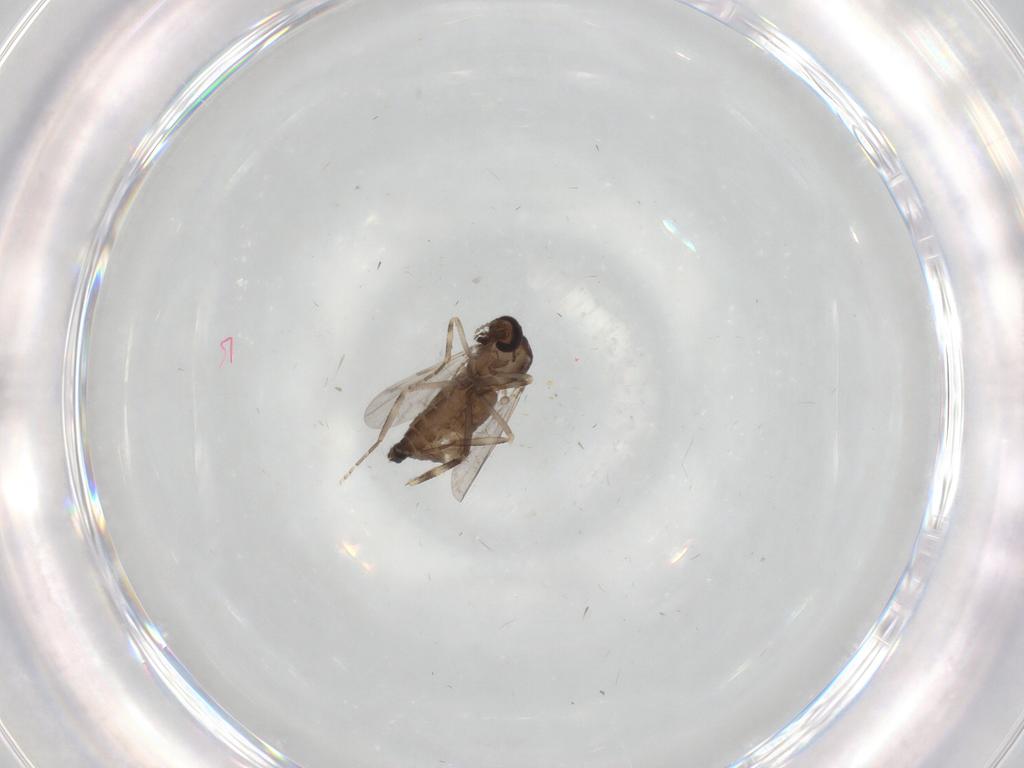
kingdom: Animalia
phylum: Arthropoda
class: Insecta
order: Diptera
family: Ceratopogonidae
